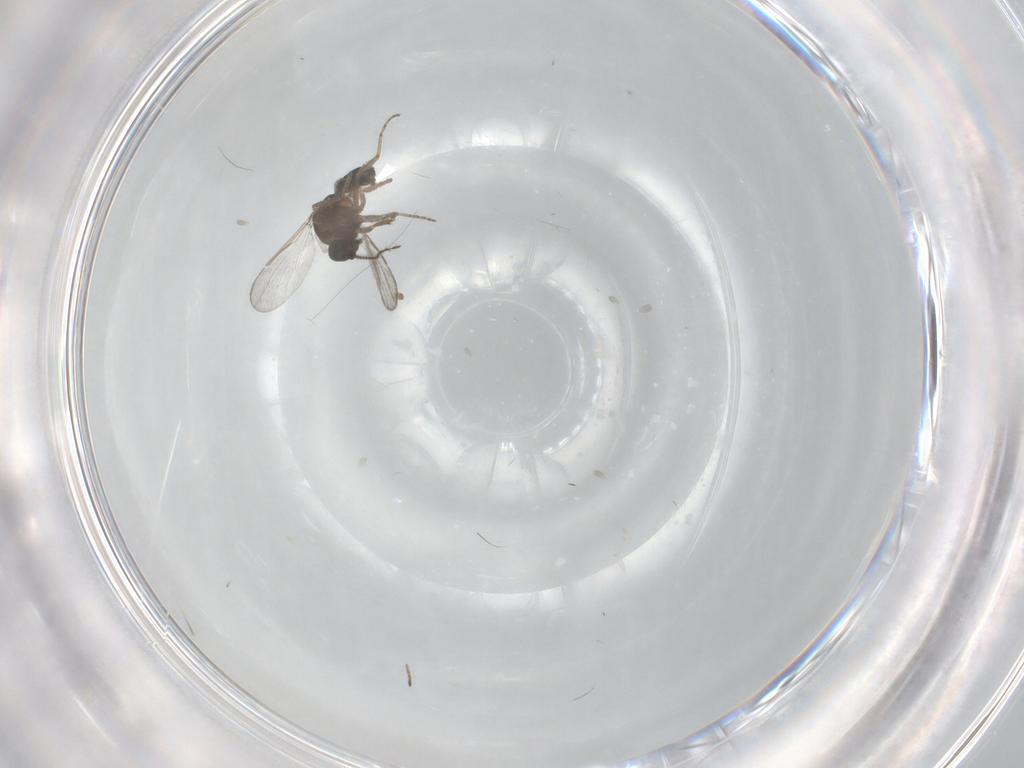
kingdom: Animalia
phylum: Arthropoda
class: Insecta
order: Diptera
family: Ceratopogonidae
